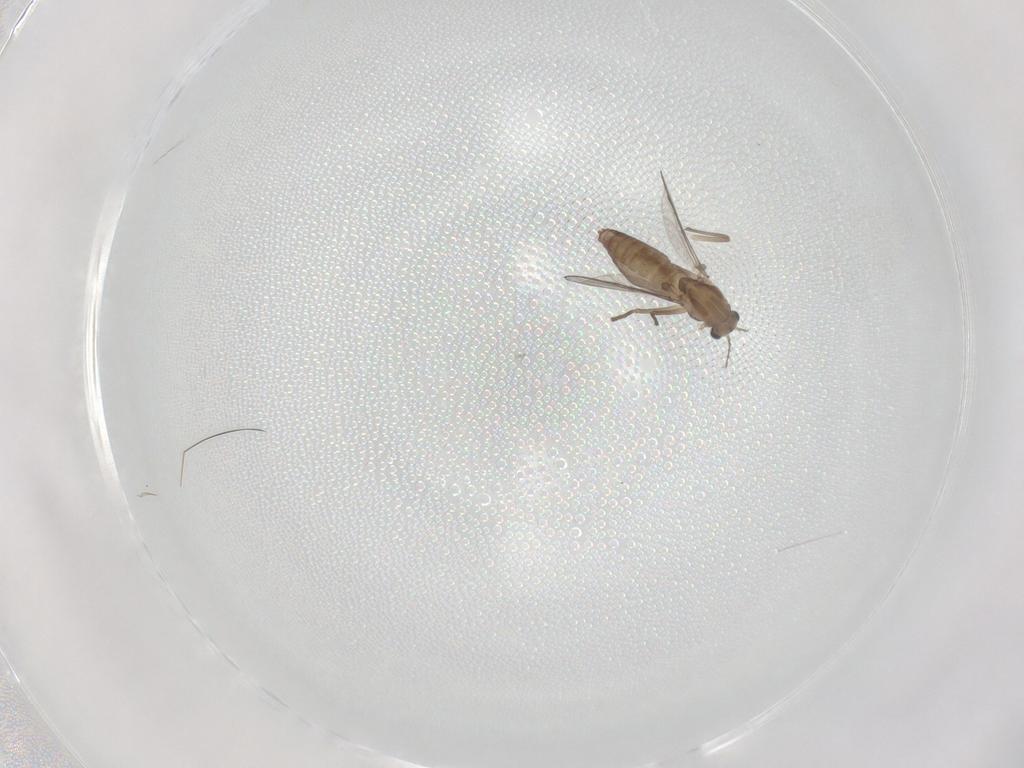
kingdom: Animalia
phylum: Arthropoda
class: Insecta
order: Diptera
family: Chironomidae
